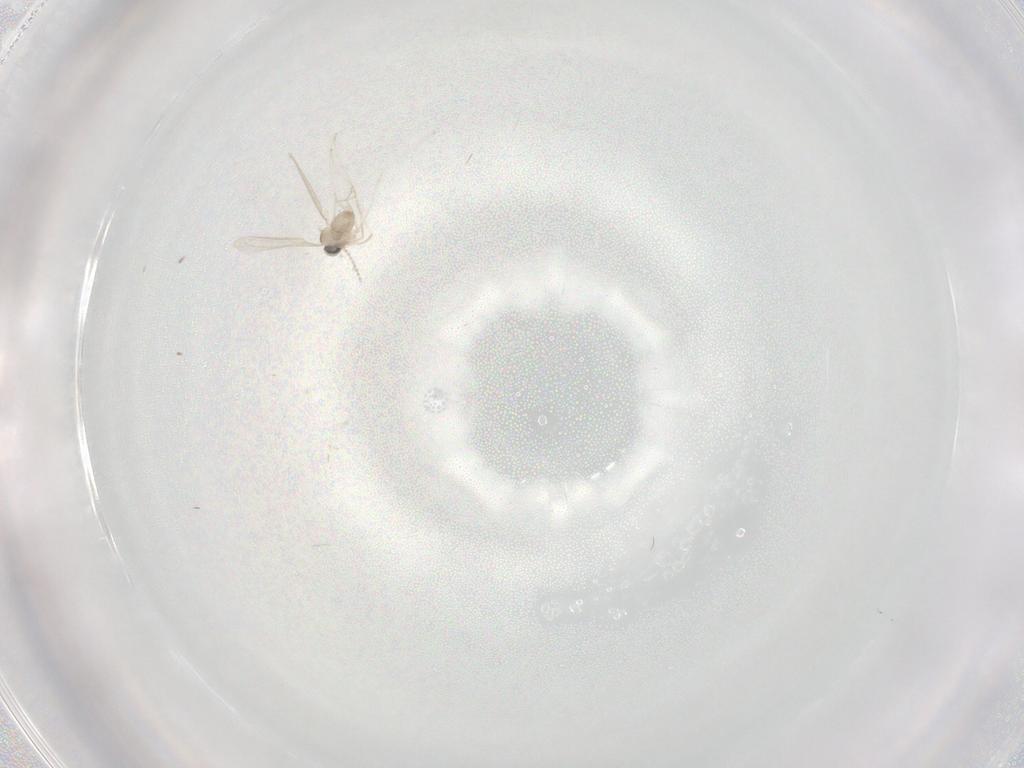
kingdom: Animalia
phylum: Arthropoda
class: Insecta
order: Diptera
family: Cecidomyiidae
